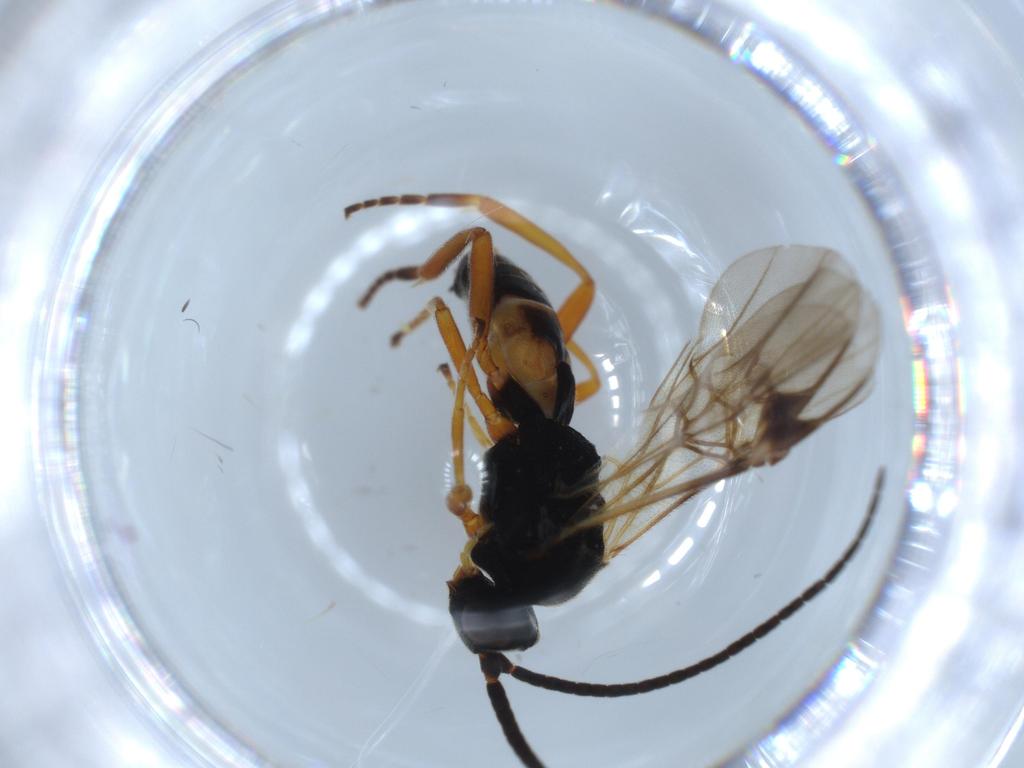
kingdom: Animalia
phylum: Arthropoda
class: Insecta
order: Hymenoptera
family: Braconidae
